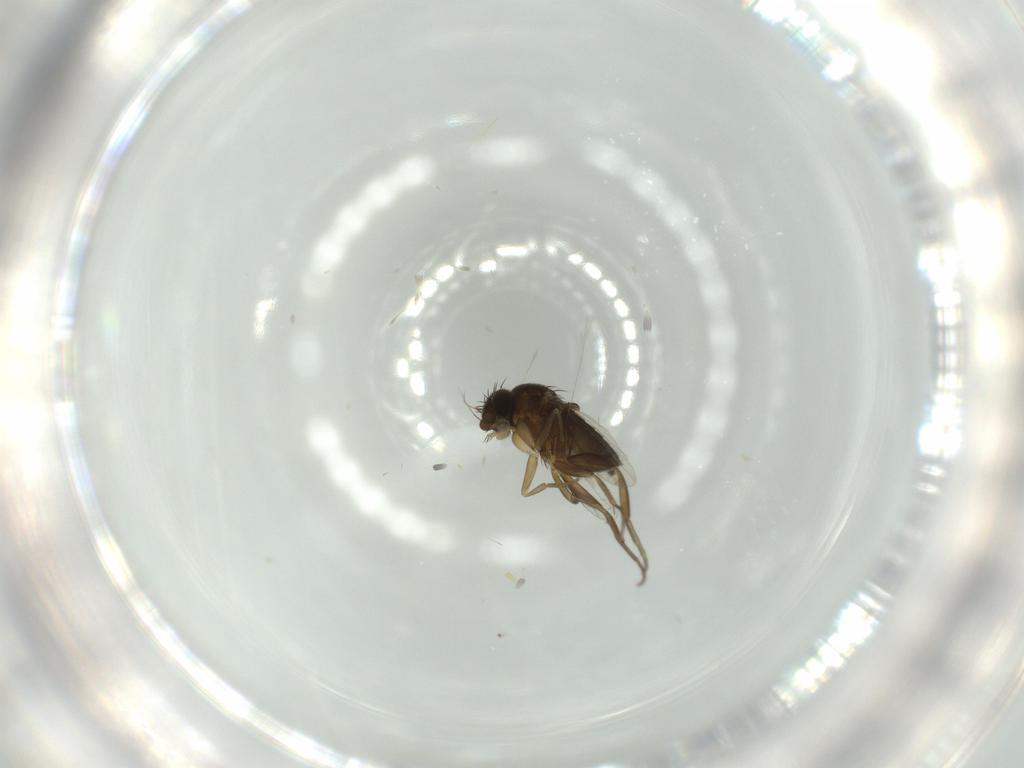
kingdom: Animalia
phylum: Arthropoda
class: Insecta
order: Diptera
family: Phoridae
